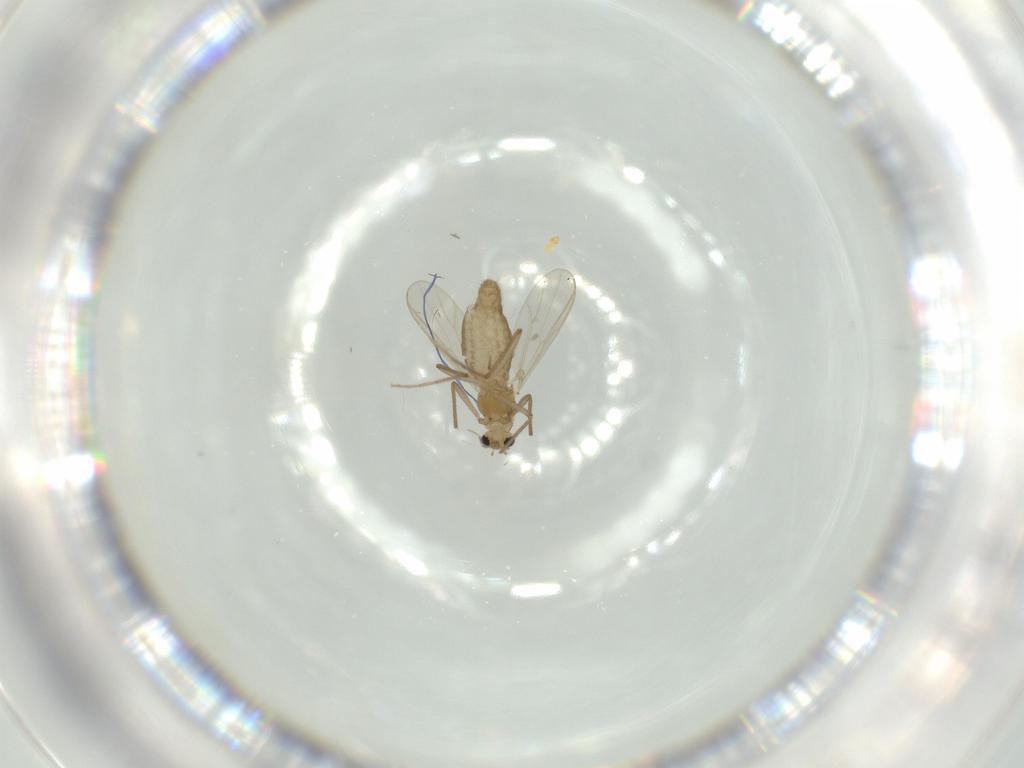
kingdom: Animalia
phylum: Arthropoda
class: Insecta
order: Diptera
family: Chironomidae
